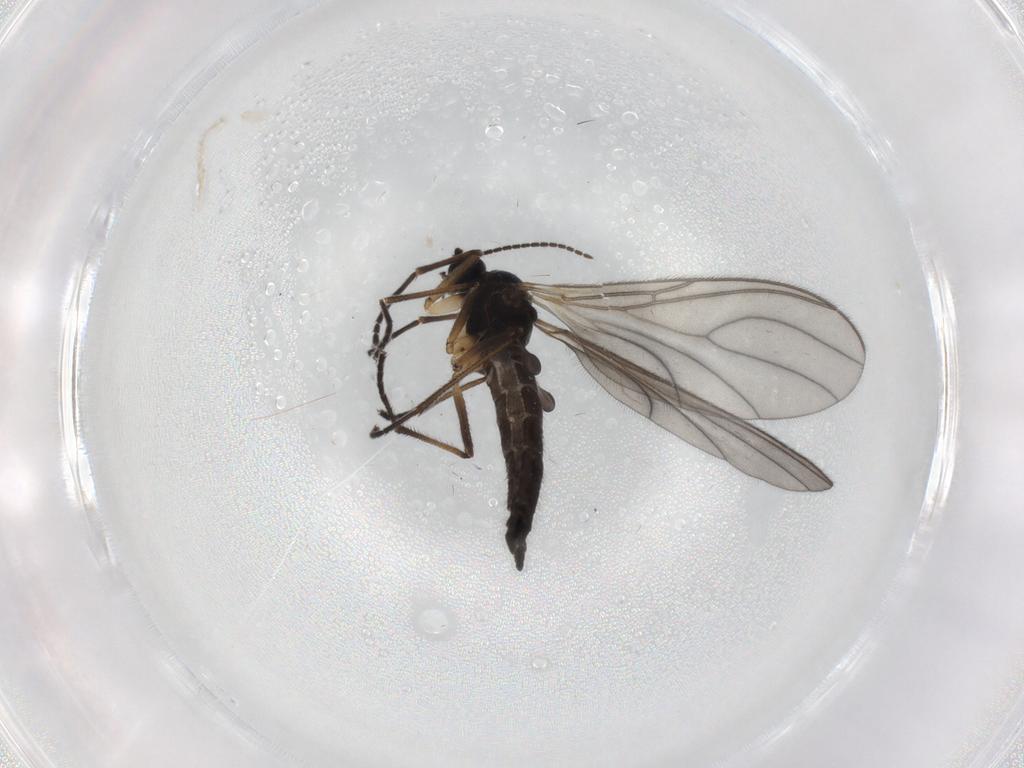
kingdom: Animalia
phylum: Arthropoda
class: Insecta
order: Diptera
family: Sciaridae
